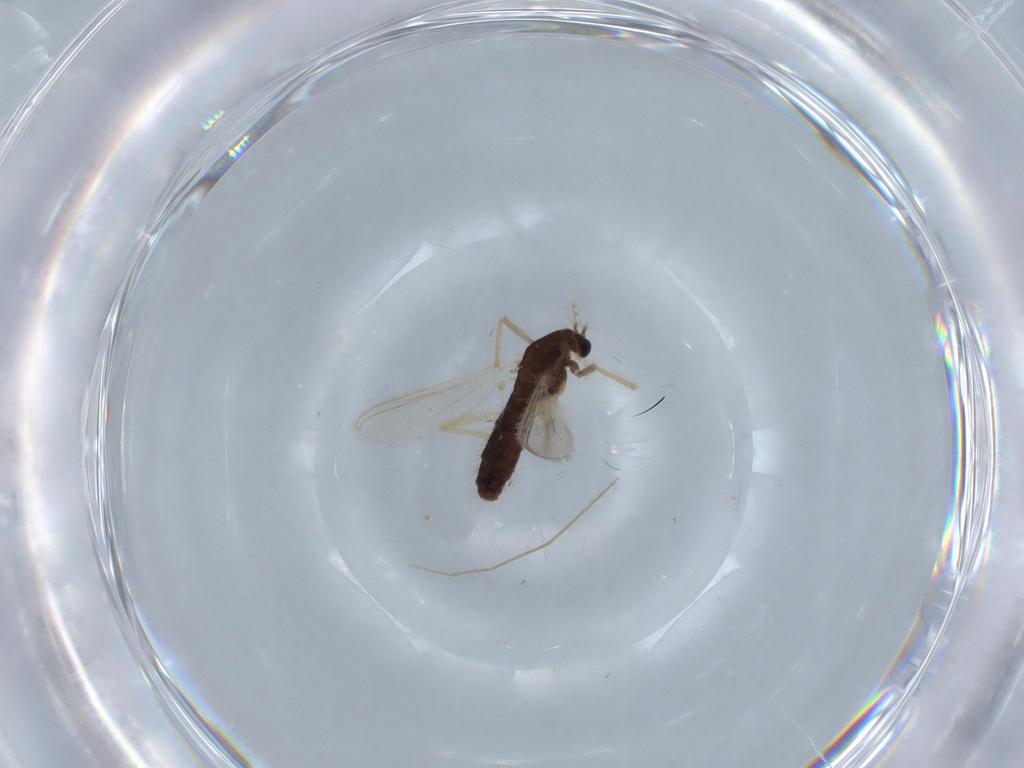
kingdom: Animalia
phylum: Arthropoda
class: Insecta
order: Diptera
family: Chironomidae
